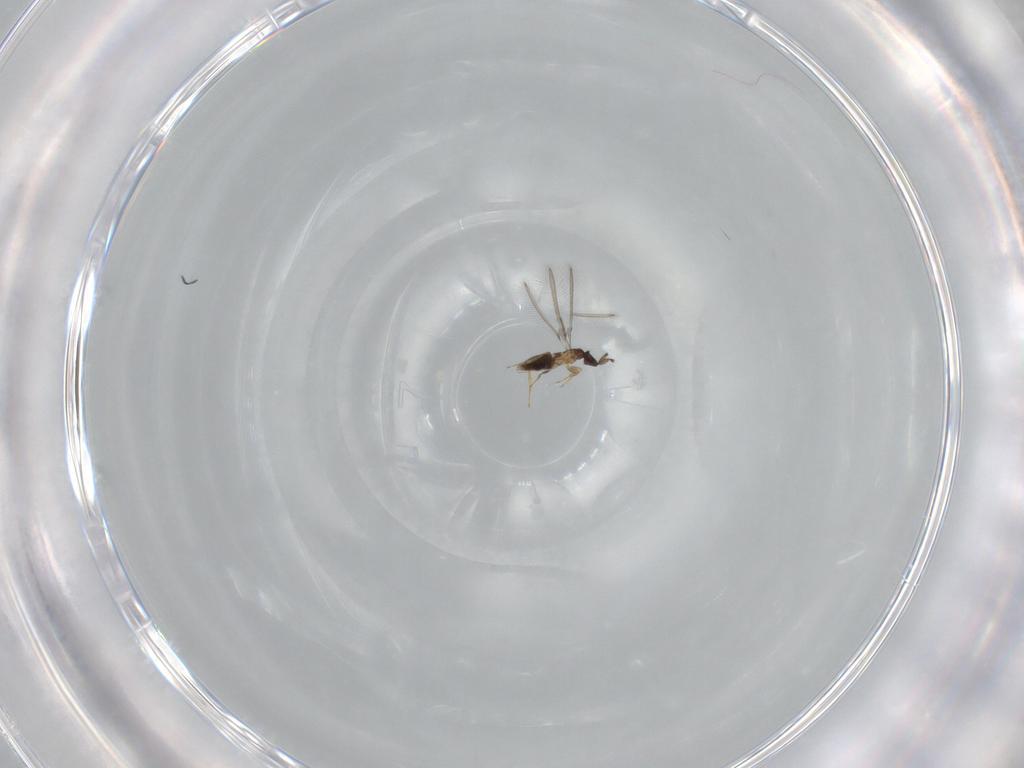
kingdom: Animalia
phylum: Arthropoda
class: Insecta
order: Hymenoptera
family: Mymaridae
